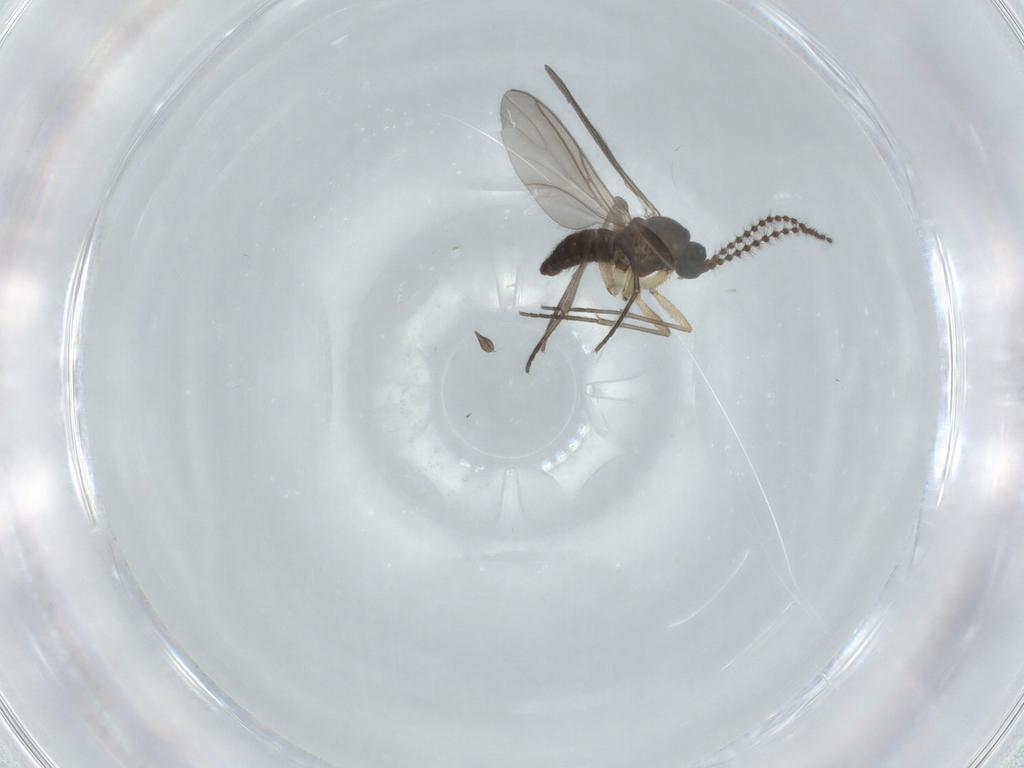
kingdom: Animalia
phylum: Arthropoda
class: Insecta
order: Diptera
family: Sciaridae
